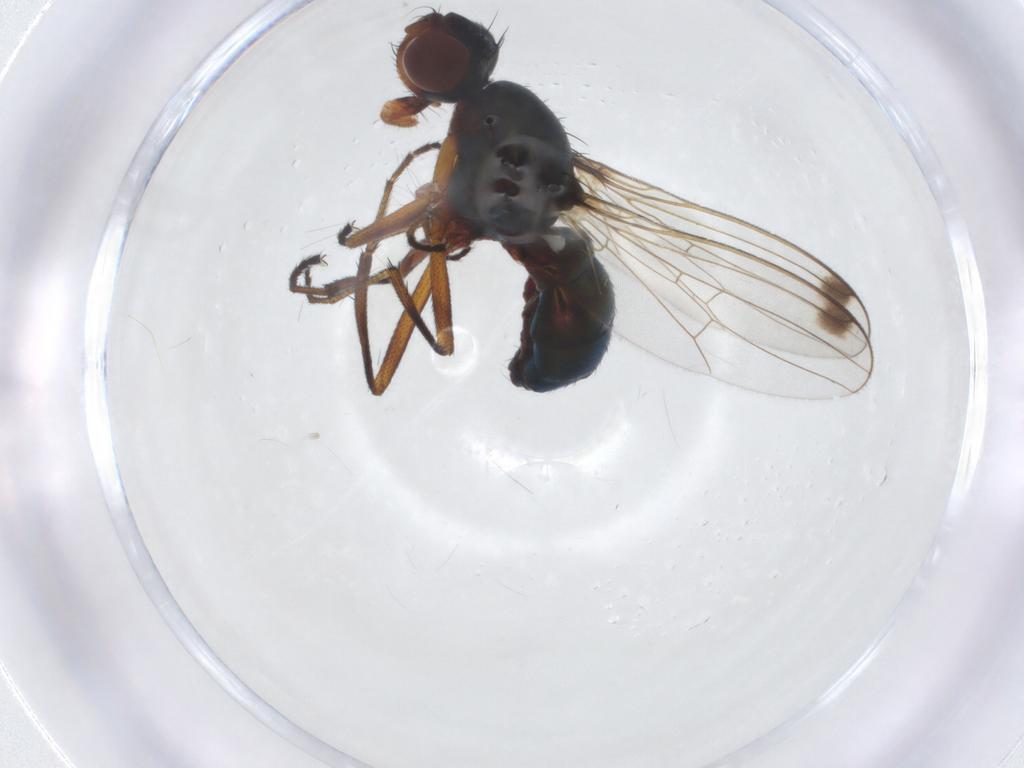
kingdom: Animalia
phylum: Arthropoda
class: Insecta
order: Diptera
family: Sepsidae
